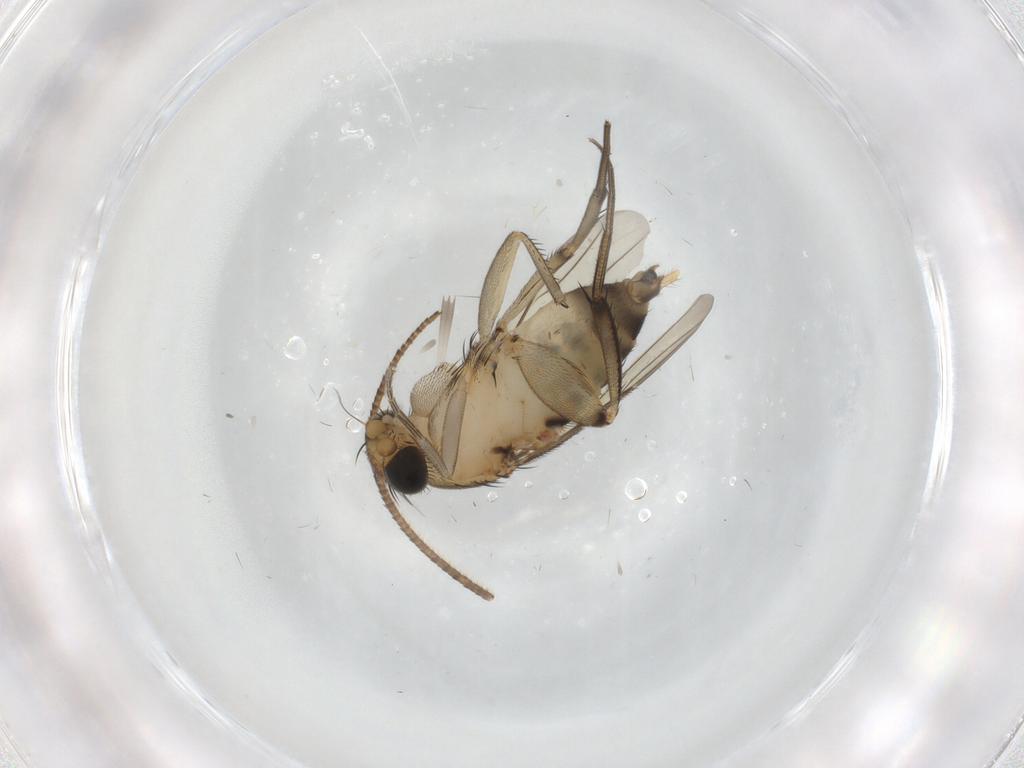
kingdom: Animalia
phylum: Arthropoda
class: Insecta
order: Diptera
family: Phoridae
